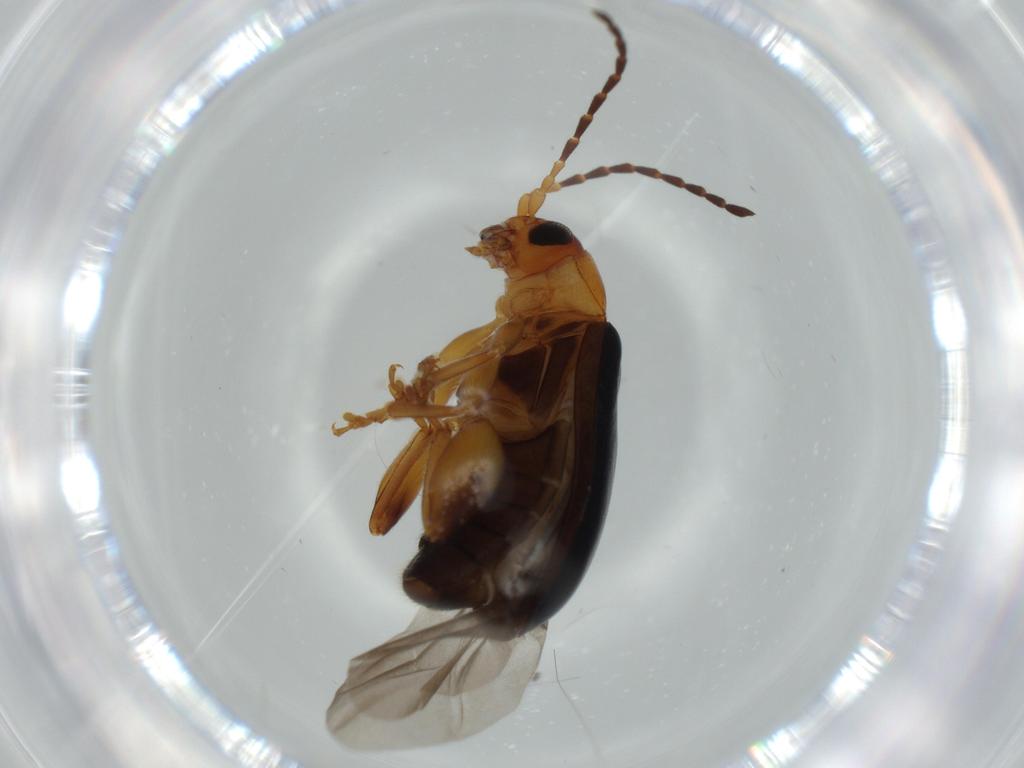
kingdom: Animalia
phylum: Arthropoda
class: Insecta
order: Coleoptera
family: Chrysomelidae
